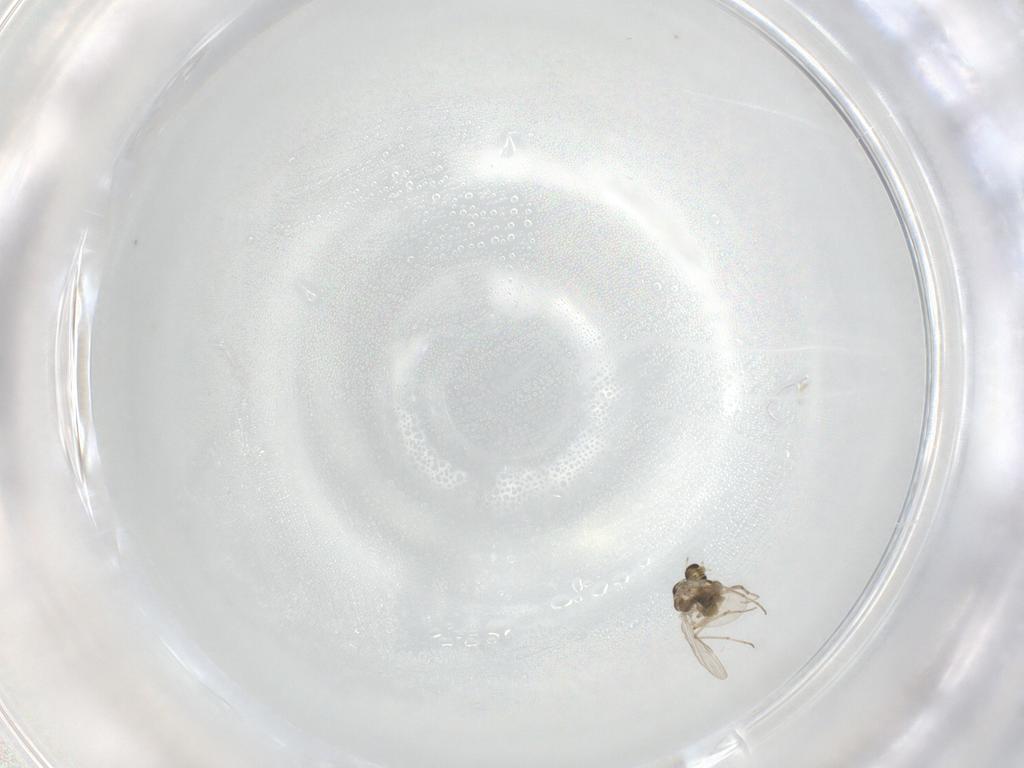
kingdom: Animalia
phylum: Arthropoda
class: Insecta
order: Diptera
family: Chironomidae
